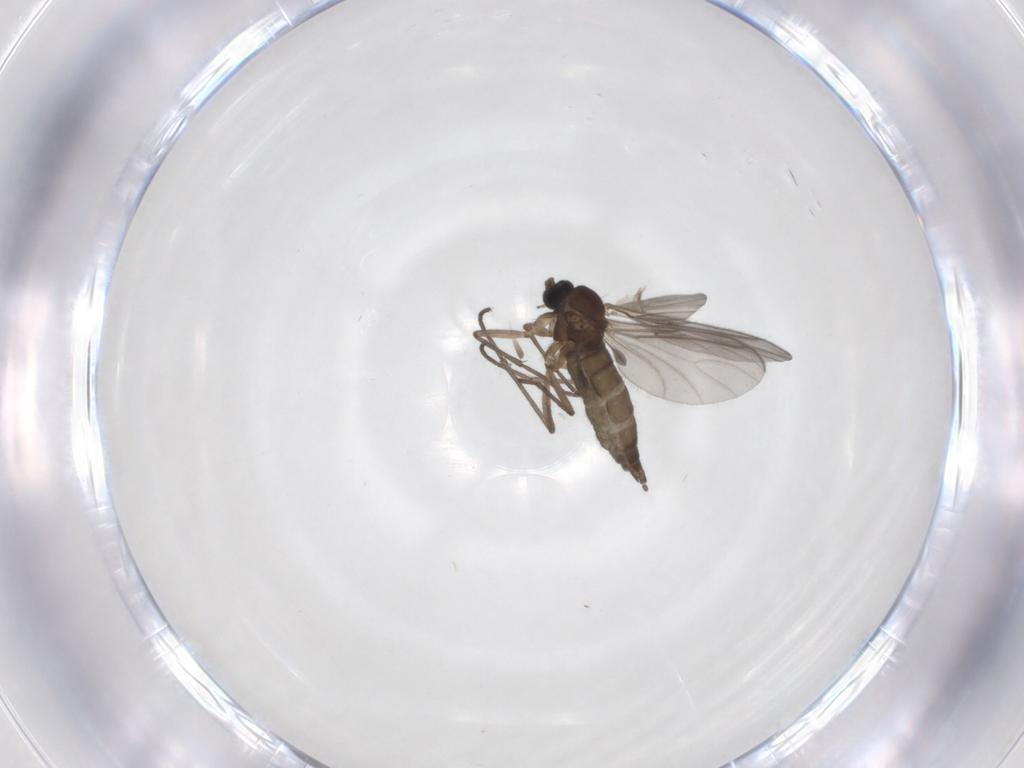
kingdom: Animalia
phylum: Arthropoda
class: Insecta
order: Diptera
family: Sciaridae
